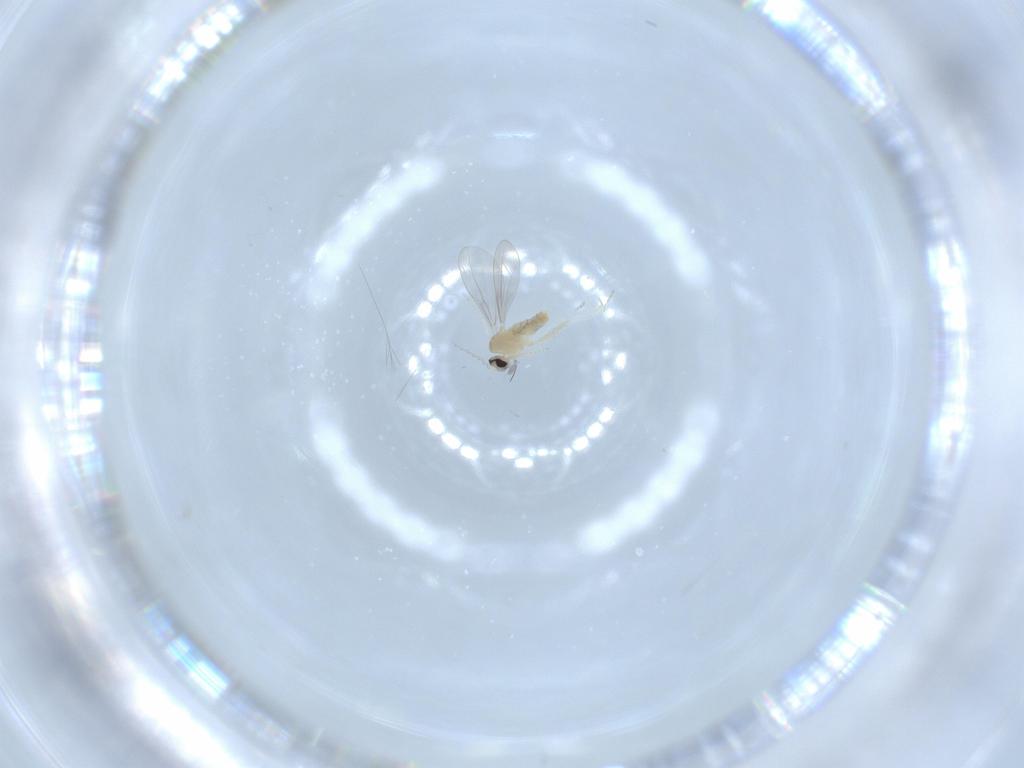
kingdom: Animalia
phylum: Arthropoda
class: Insecta
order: Diptera
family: Cecidomyiidae
